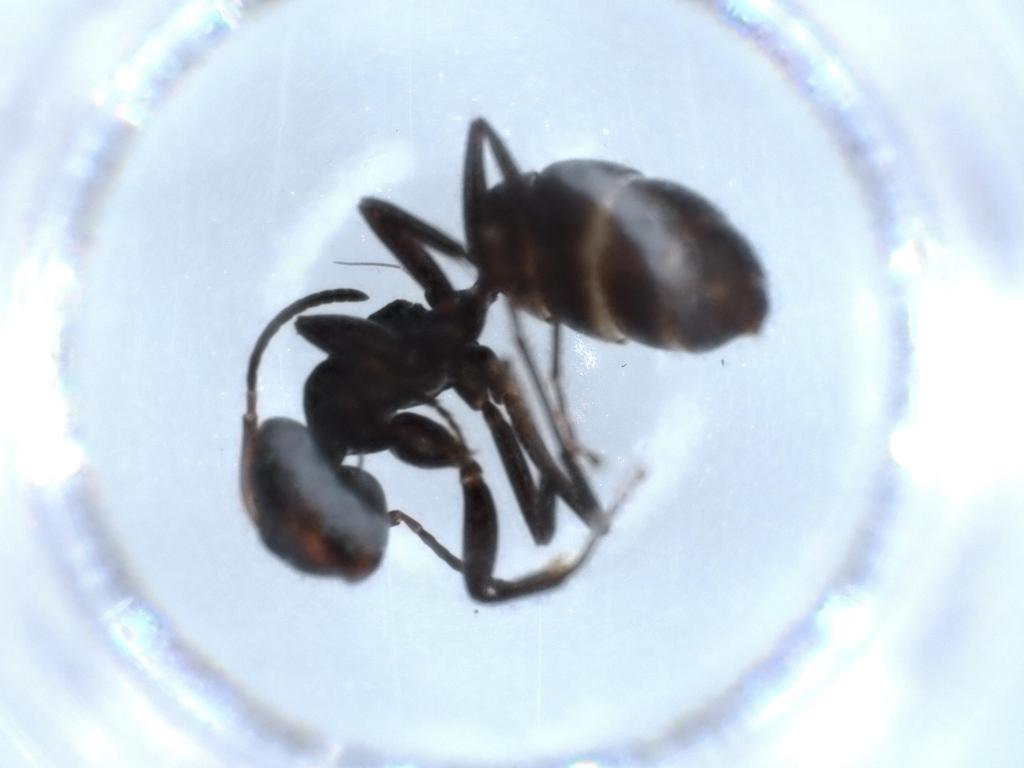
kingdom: Animalia
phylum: Arthropoda
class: Insecta
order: Hymenoptera
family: Formicidae
